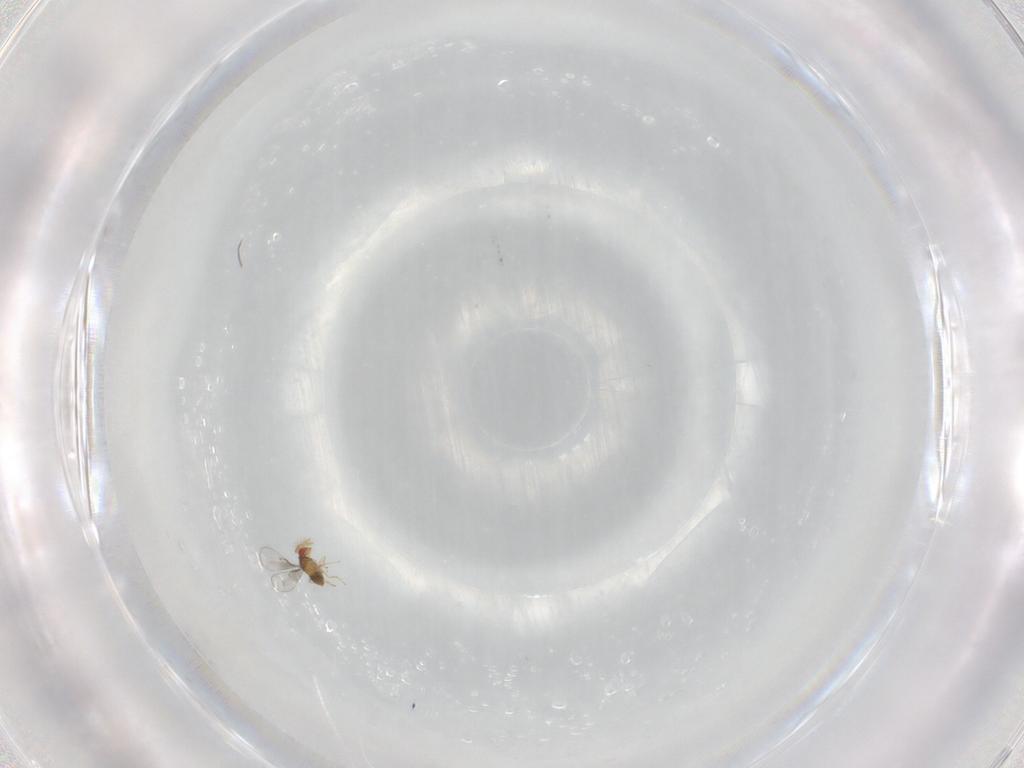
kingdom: Animalia
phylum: Arthropoda
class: Insecta
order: Hymenoptera
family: Trichogrammatidae
